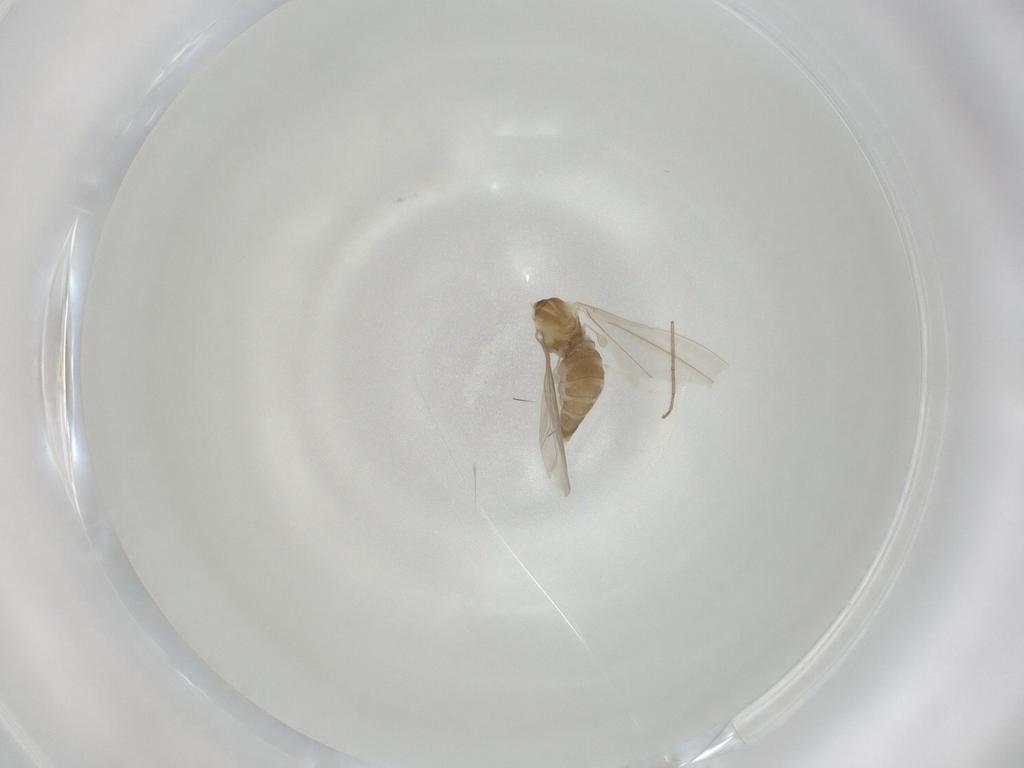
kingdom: Animalia
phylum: Arthropoda
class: Insecta
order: Diptera
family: Cecidomyiidae
